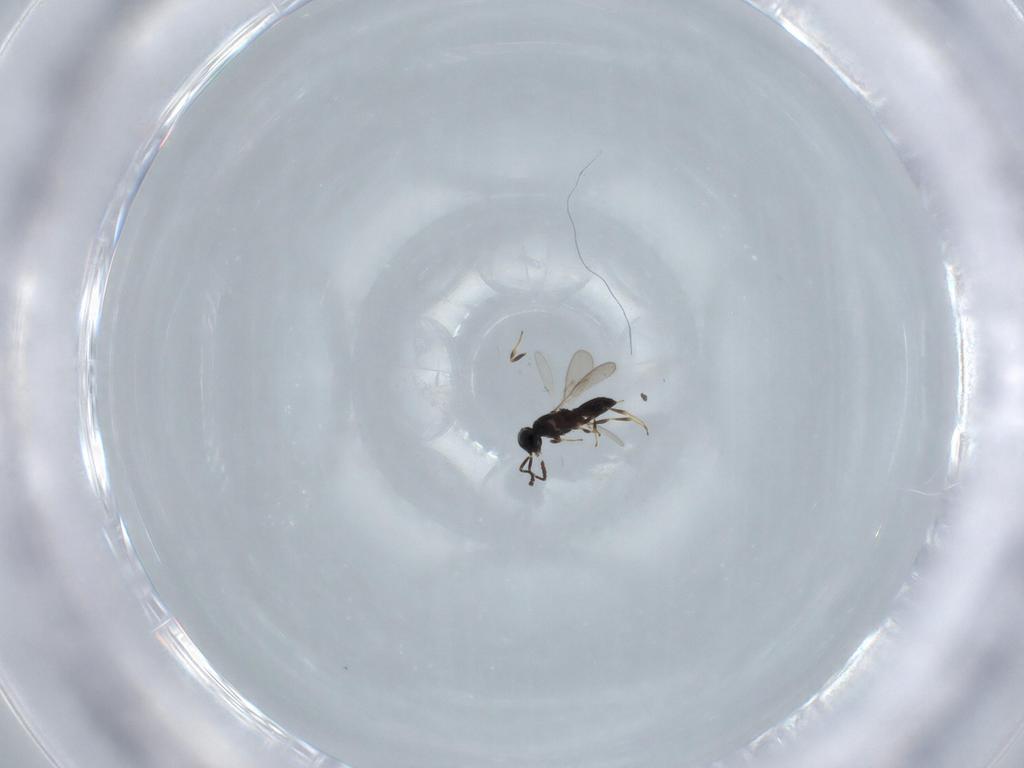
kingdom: Animalia
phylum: Arthropoda
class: Insecta
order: Hymenoptera
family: Scelionidae
